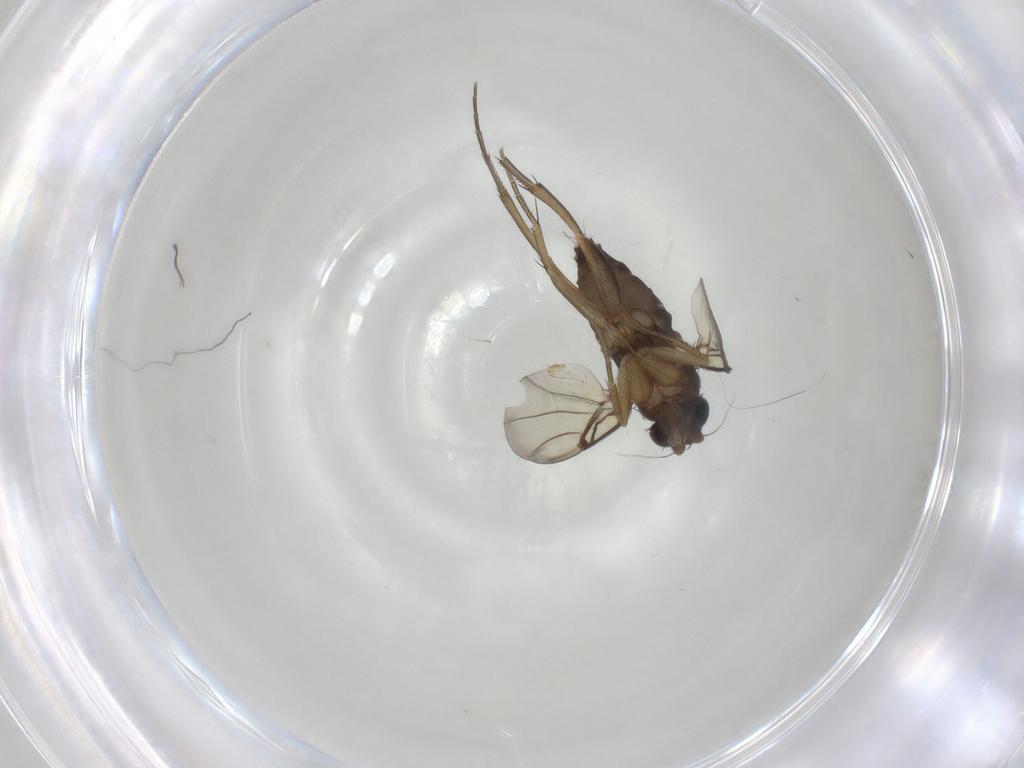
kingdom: Animalia
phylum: Arthropoda
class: Insecta
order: Diptera
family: Phoridae
